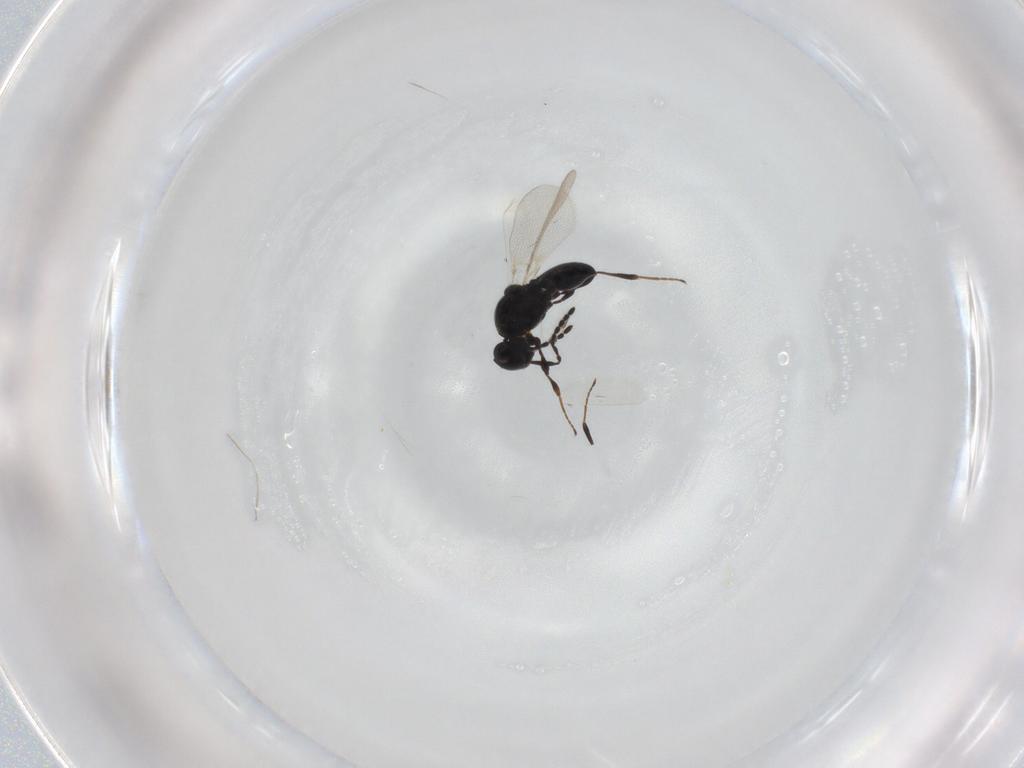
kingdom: Animalia
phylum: Arthropoda
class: Insecta
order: Hymenoptera
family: Platygastridae
